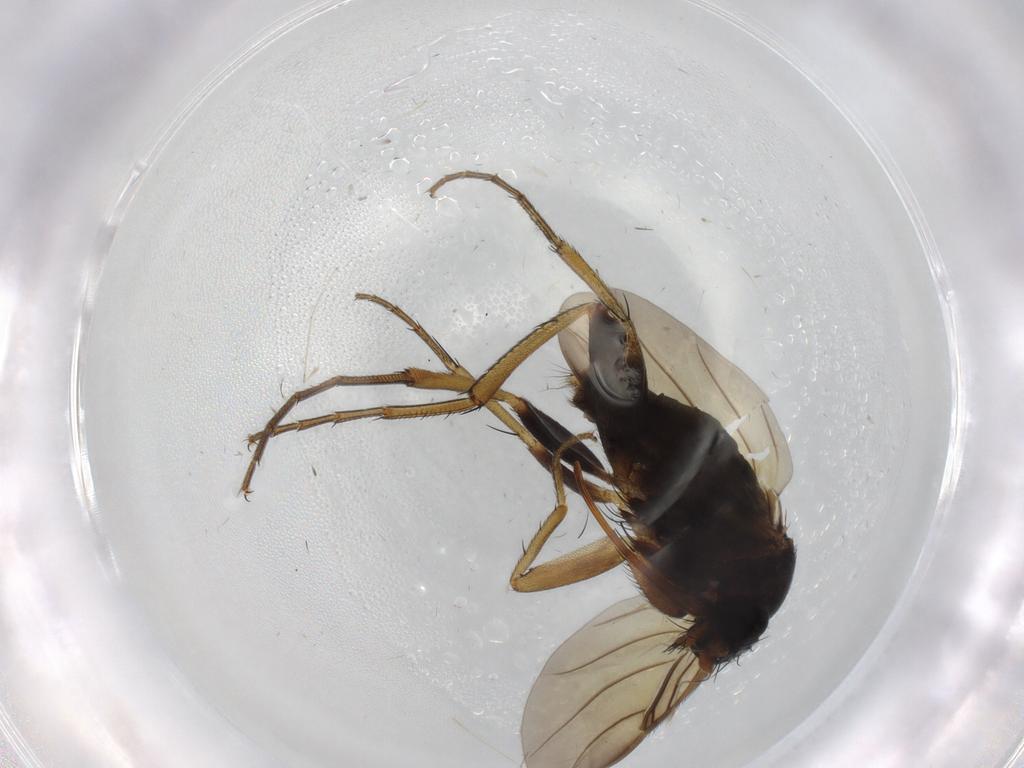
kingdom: Animalia
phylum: Arthropoda
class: Insecta
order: Diptera
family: Phoridae
